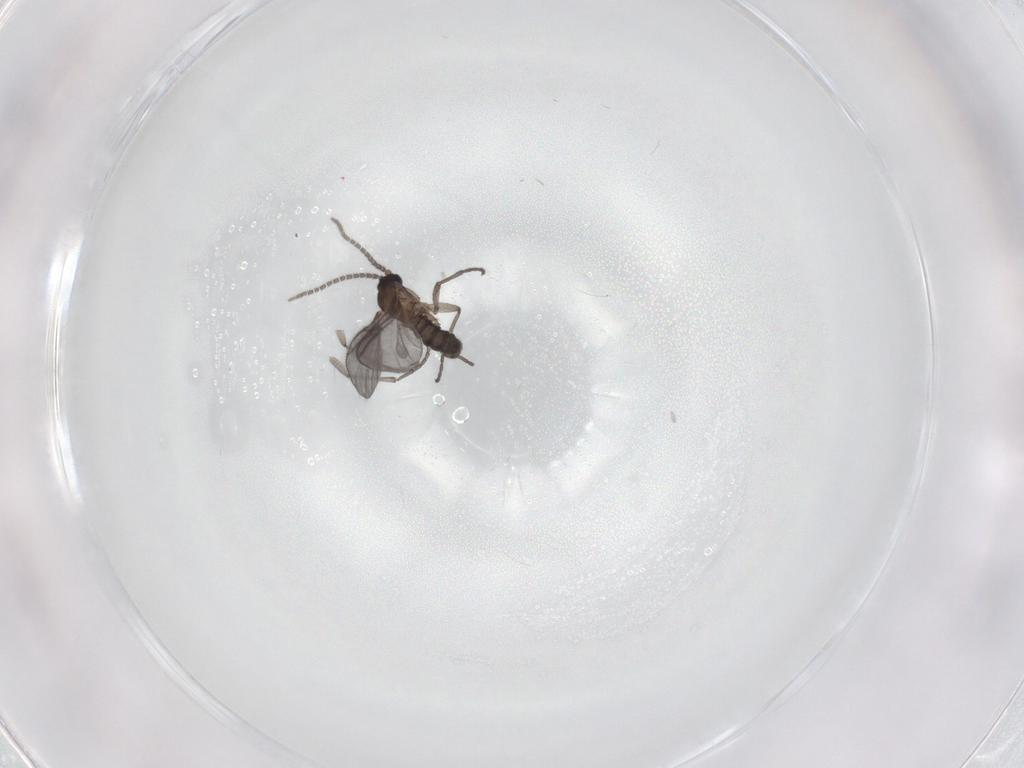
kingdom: Animalia
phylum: Arthropoda
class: Insecta
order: Diptera
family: Sciaridae
